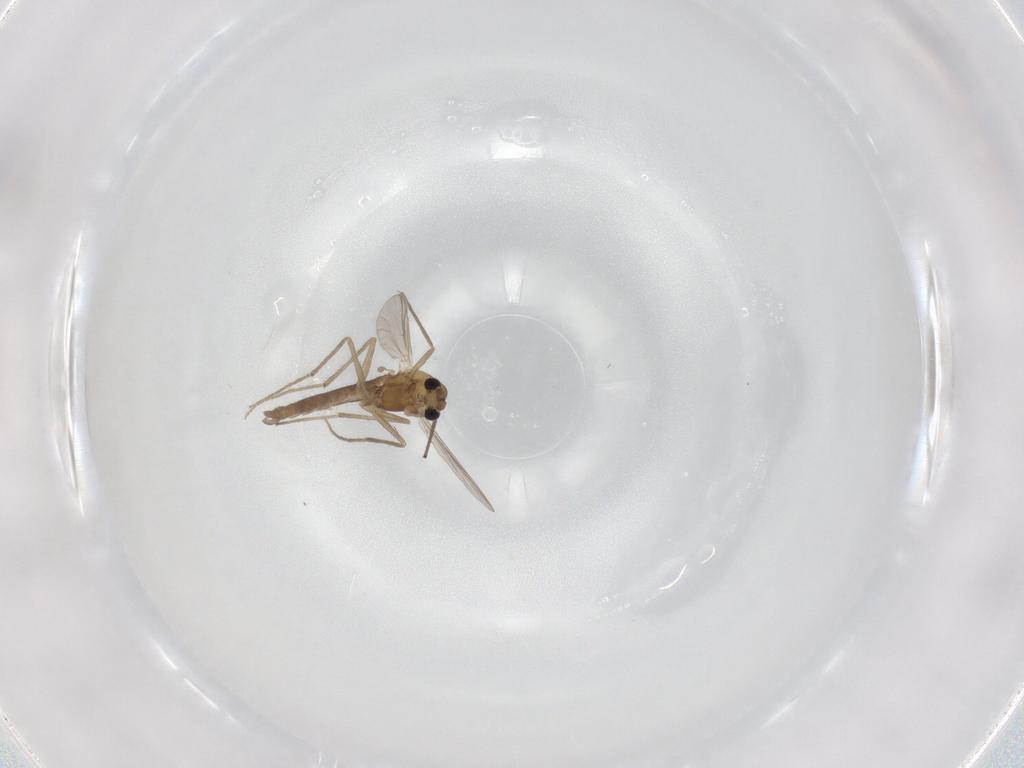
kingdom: Animalia
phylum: Arthropoda
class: Insecta
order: Diptera
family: Chironomidae
